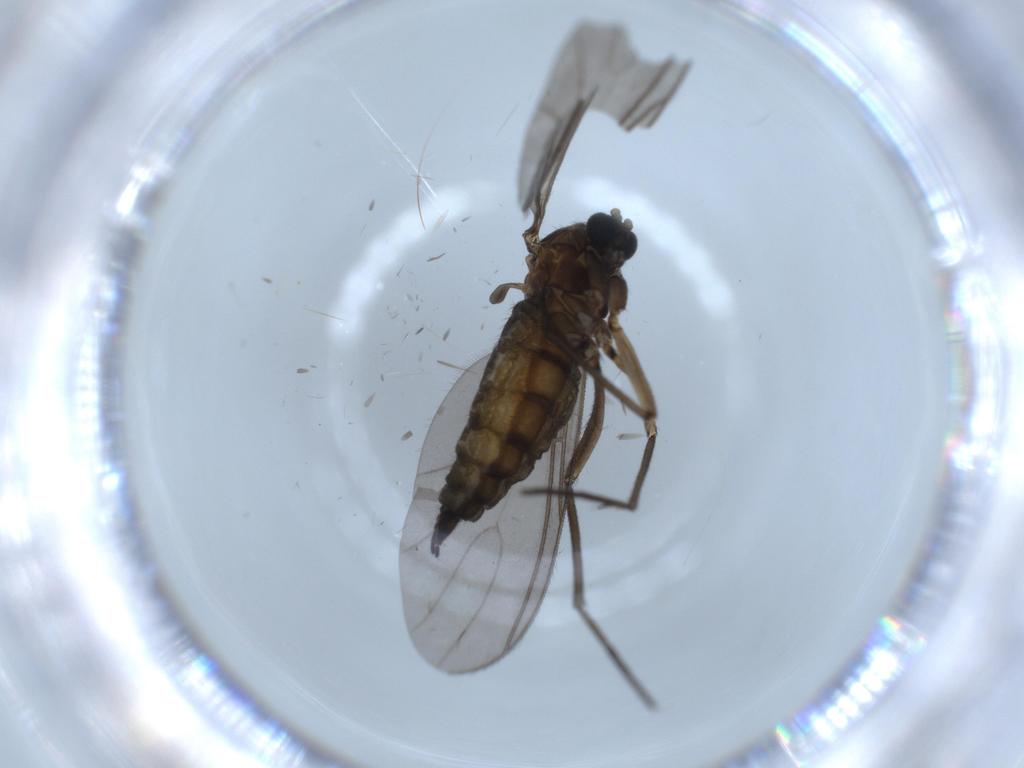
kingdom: Animalia
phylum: Arthropoda
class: Insecta
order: Diptera
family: Sciaridae
